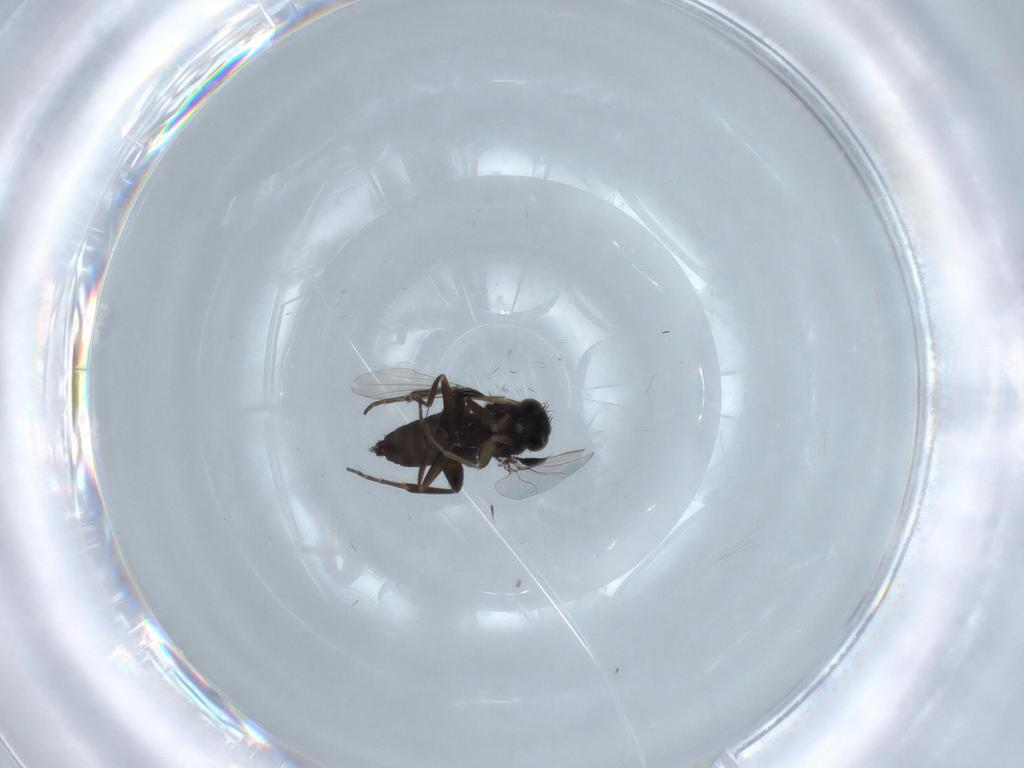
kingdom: Animalia
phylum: Arthropoda
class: Insecta
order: Diptera
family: Phoridae
